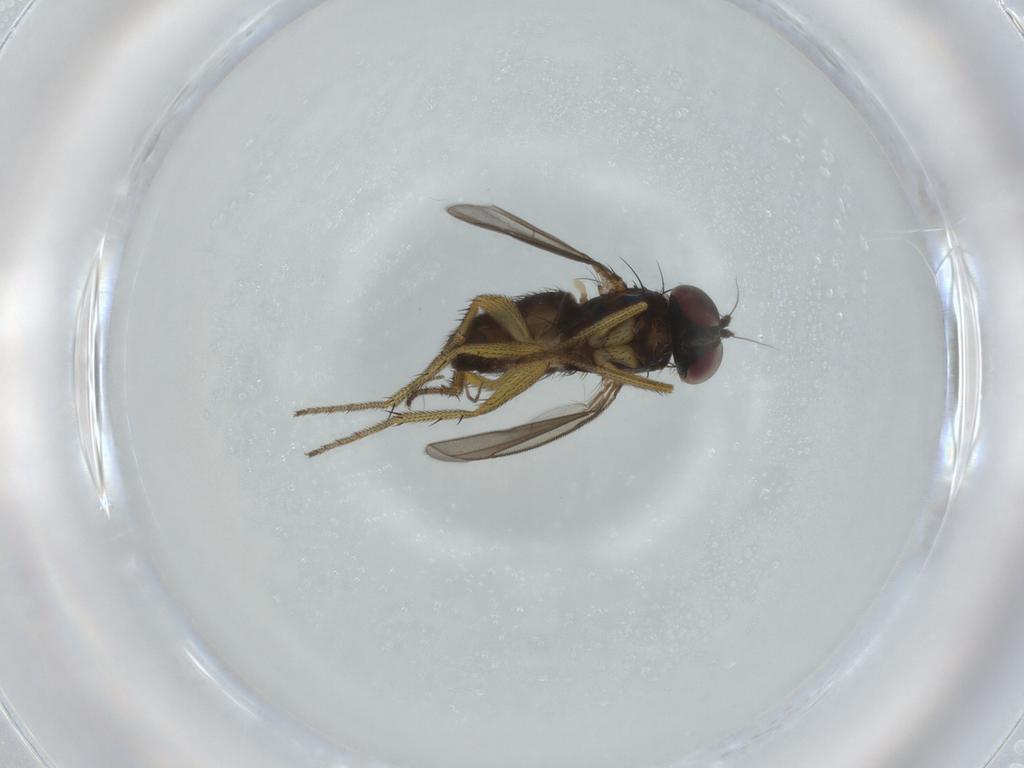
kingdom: Animalia
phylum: Arthropoda
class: Insecta
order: Diptera
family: Dolichopodidae
